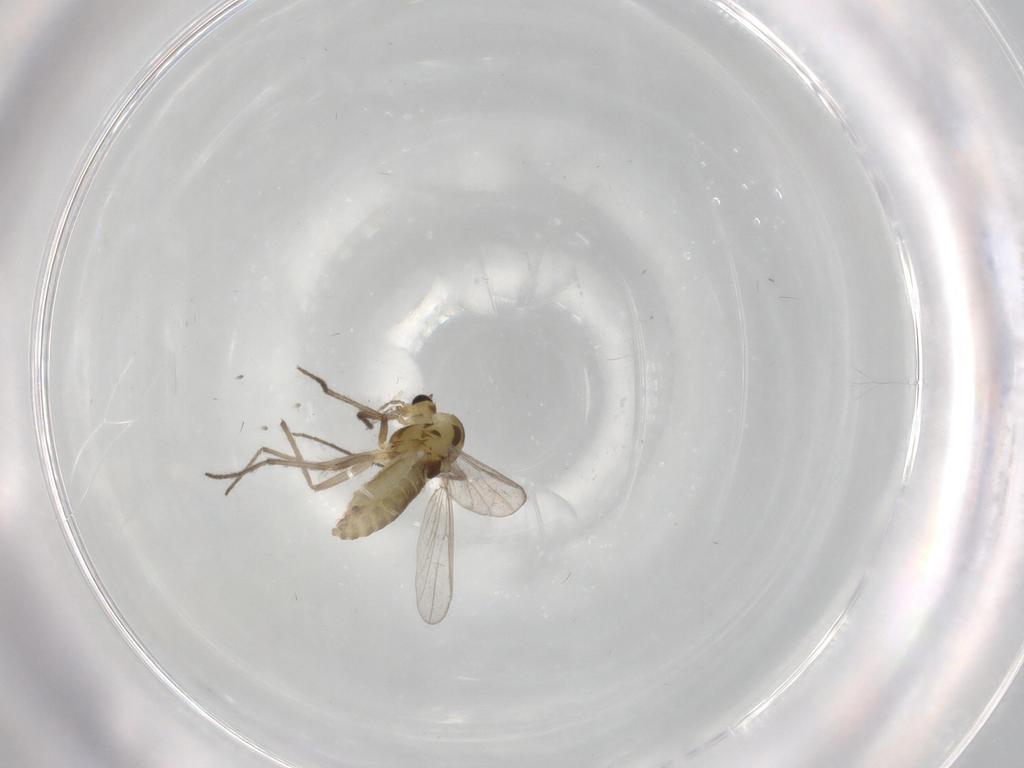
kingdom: Animalia
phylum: Arthropoda
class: Insecta
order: Diptera
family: Chironomidae
